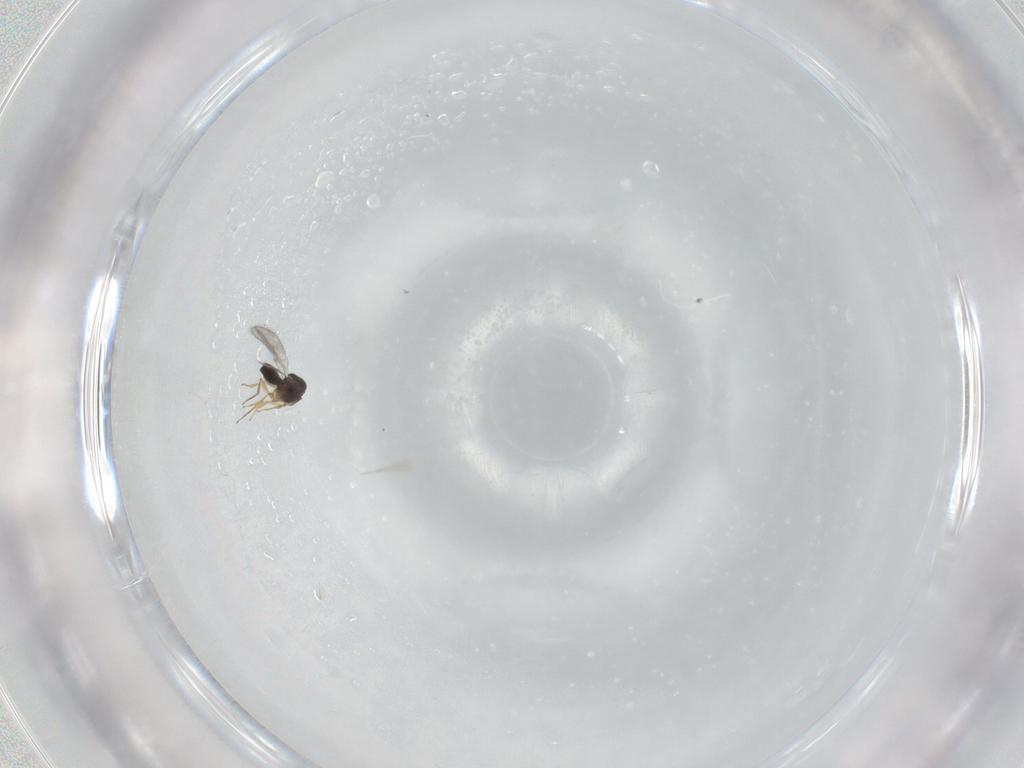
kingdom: Animalia
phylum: Arthropoda
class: Insecta
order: Hymenoptera
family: Scelionidae
